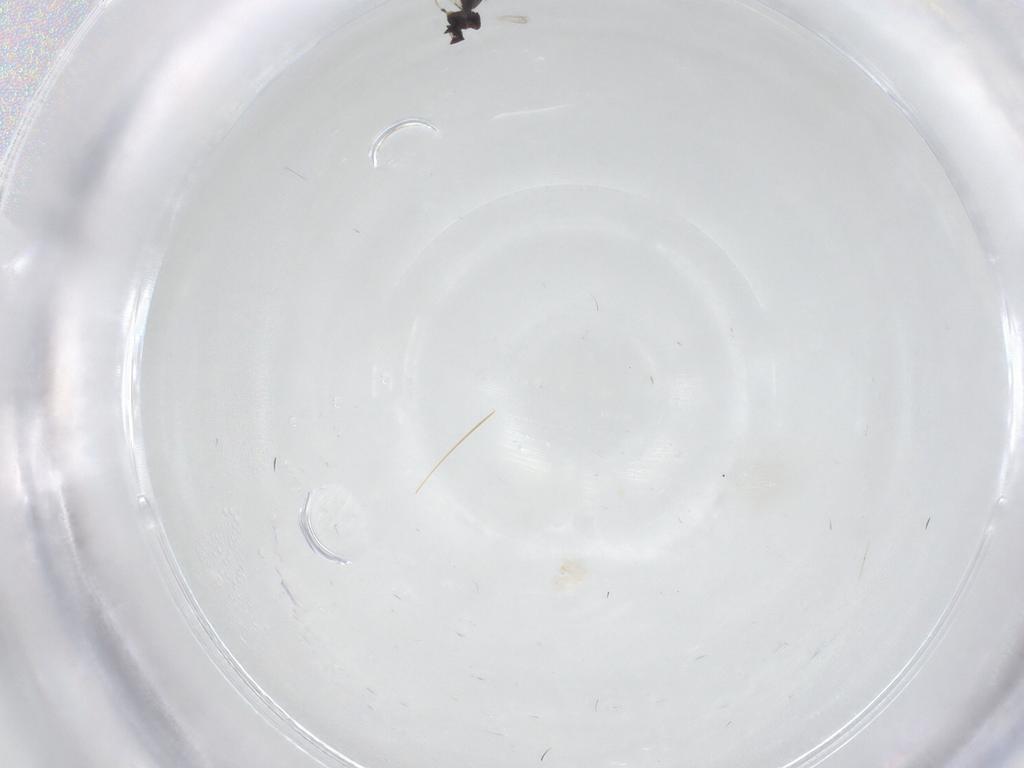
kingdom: Animalia
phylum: Arthropoda
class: Insecta
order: Diptera
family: Sciaridae
